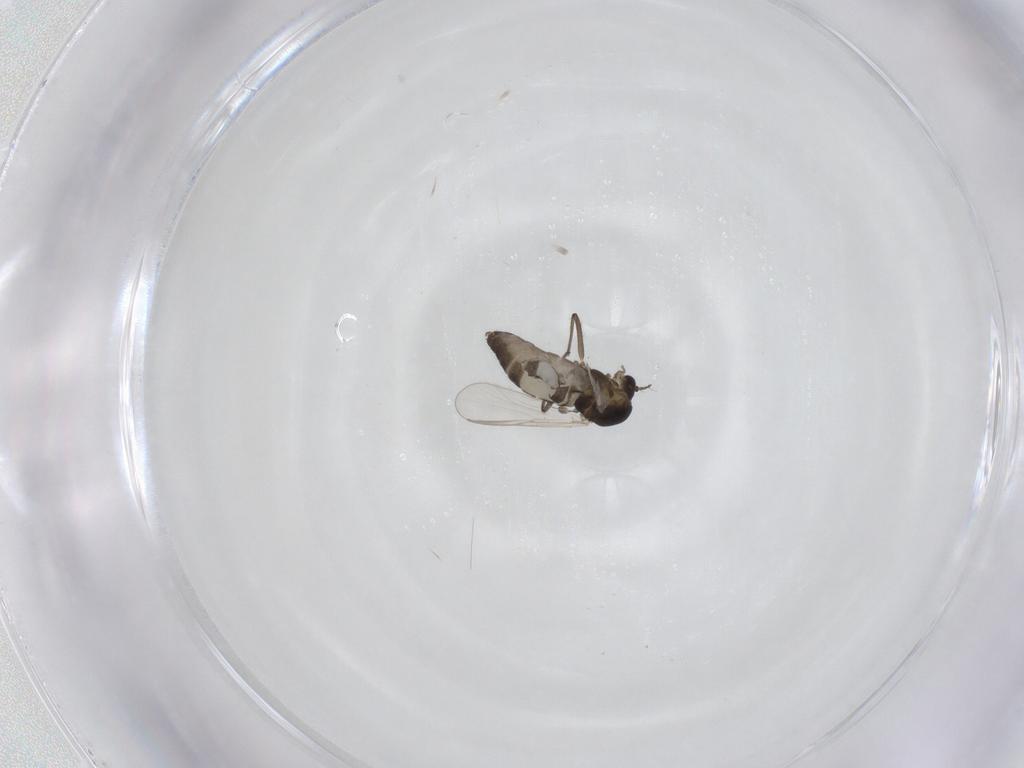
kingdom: Animalia
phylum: Arthropoda
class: Insecta
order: Diptera
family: Chironomidae
